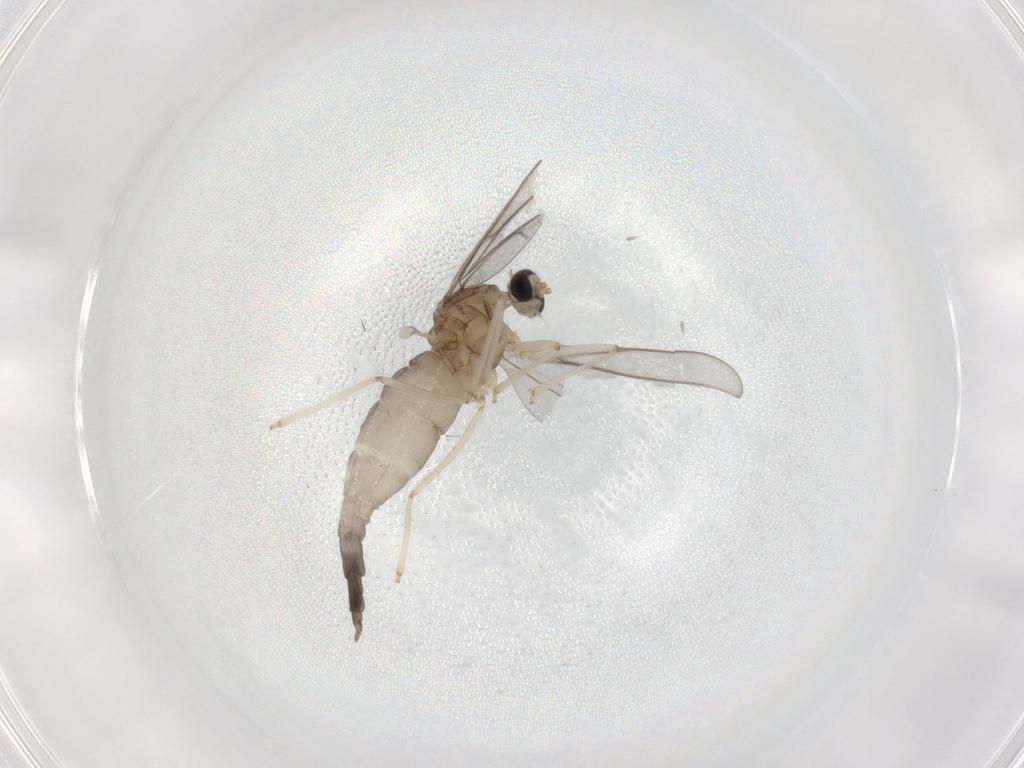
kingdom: Animalia
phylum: Arthropoda
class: Insecta
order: Diptera
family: Cecidomyiidae
